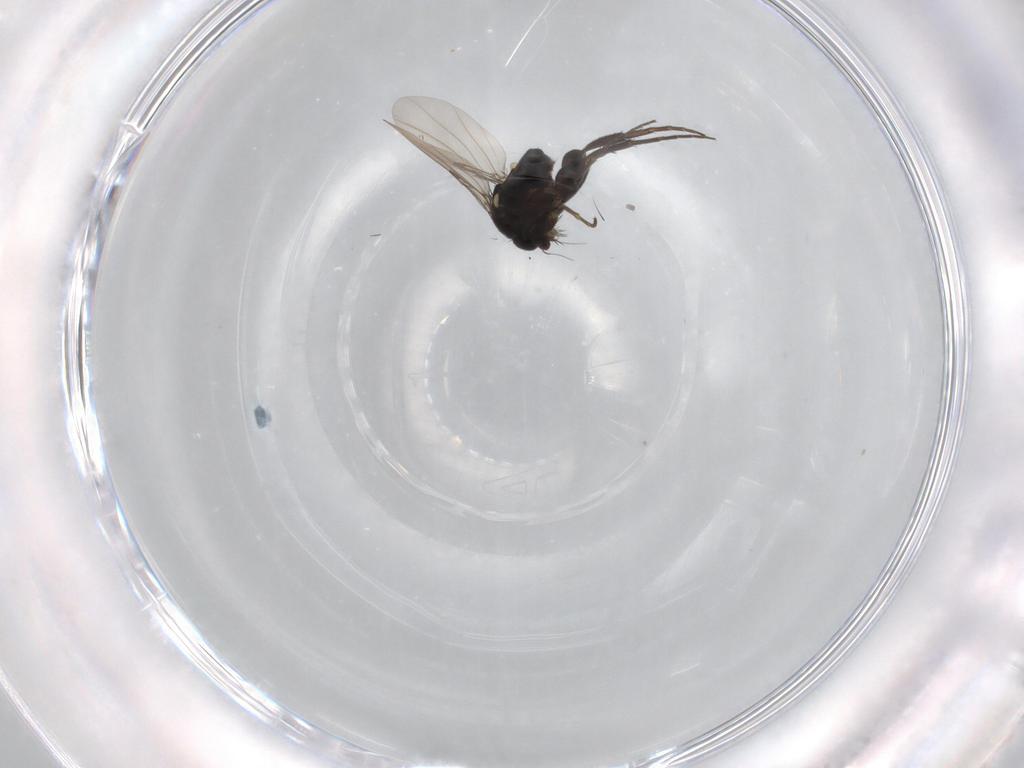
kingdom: Animalia
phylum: Arthropoda
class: Insecta
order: Diptera
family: Phoridae
